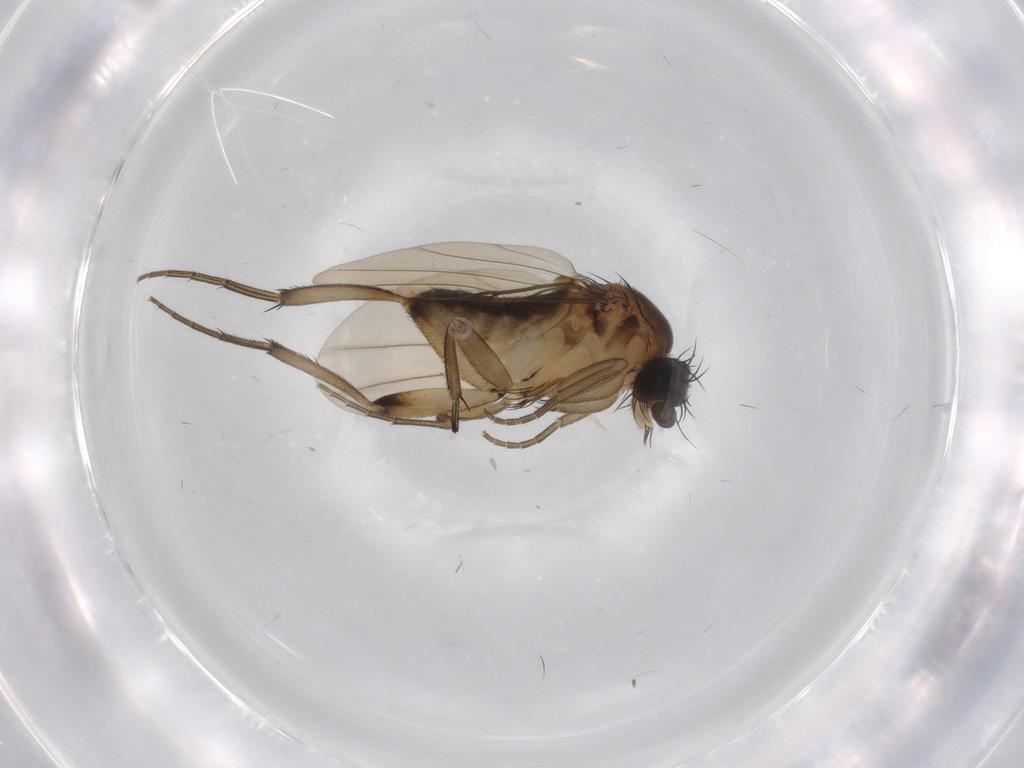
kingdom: Animalia
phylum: Arthropoda
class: Insecta
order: Diptera
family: Phoridae
